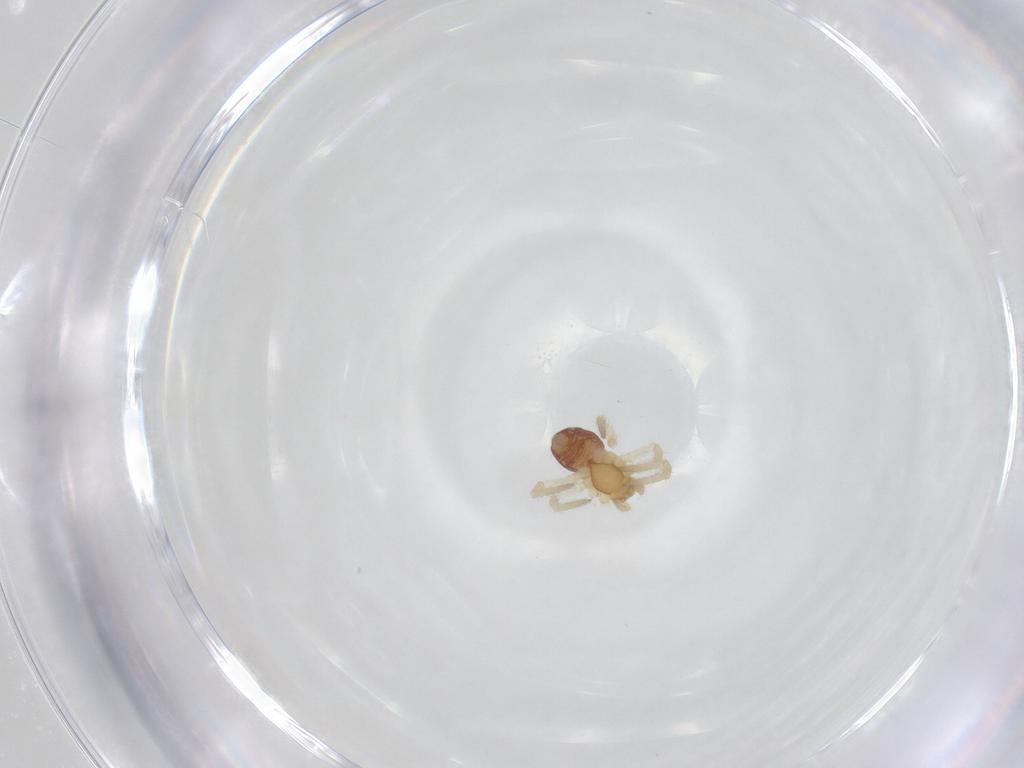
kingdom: Animalia
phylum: Arthropoda
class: Arachnida
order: Araneae
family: Theridiidae
